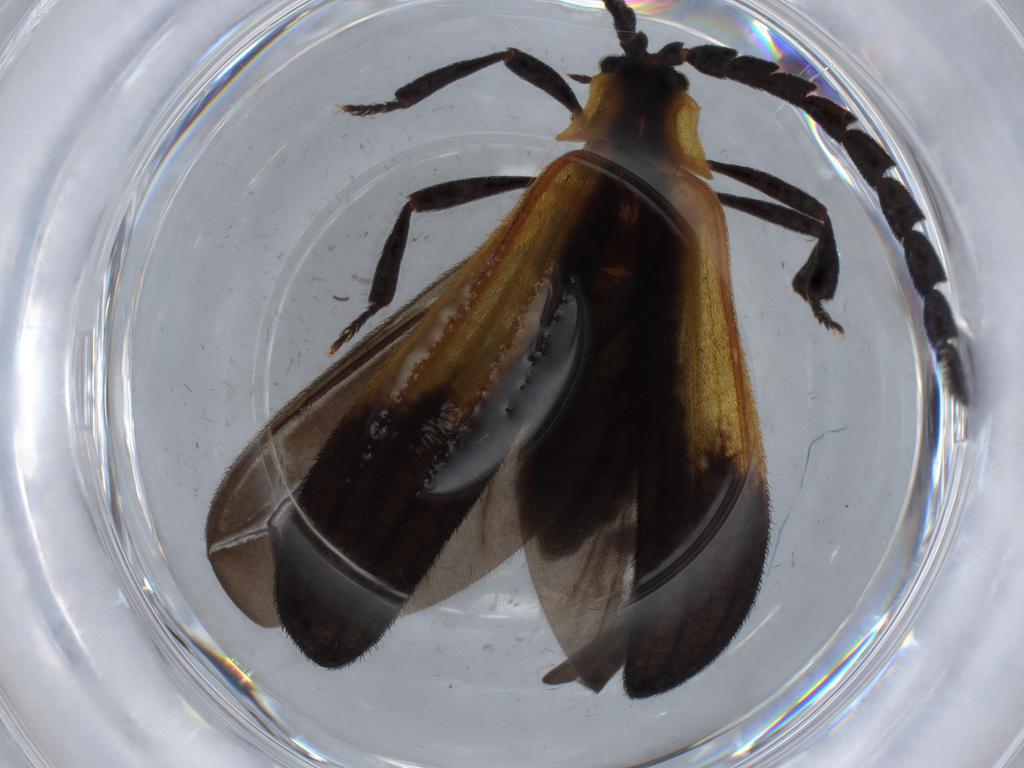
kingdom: Animalia
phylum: Arthropoda
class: Insecta
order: Coleoptera
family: Lycidae
